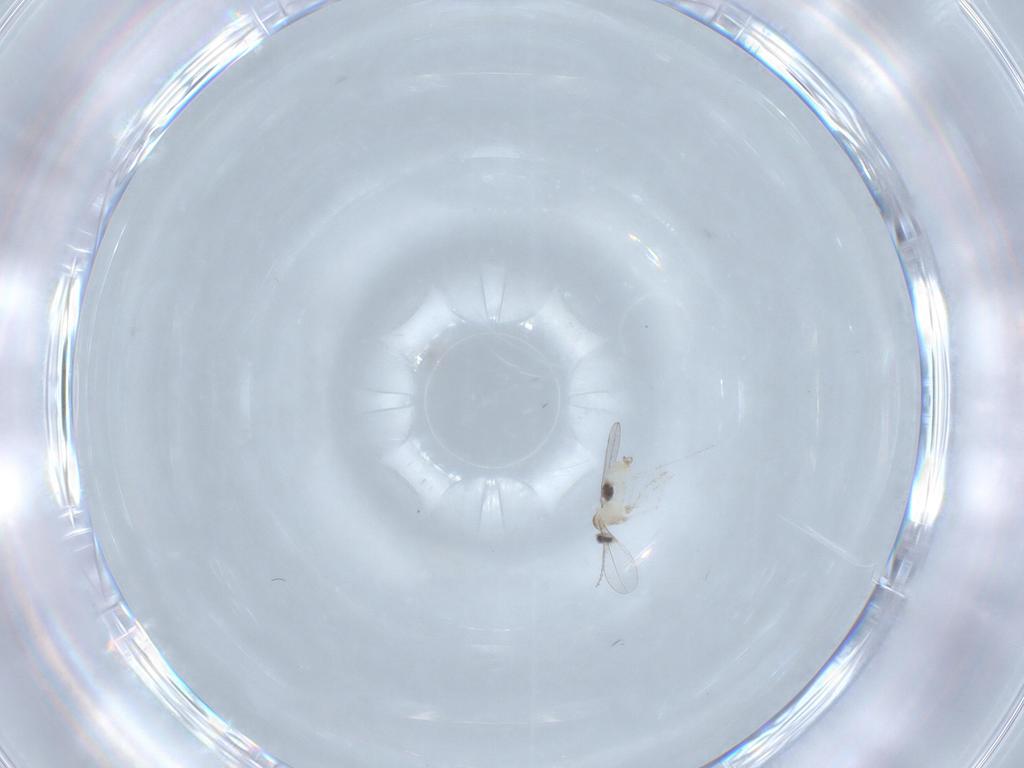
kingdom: Animalia
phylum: Arthropoda
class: Insecta
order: Diptera
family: Cecidomyiidae
